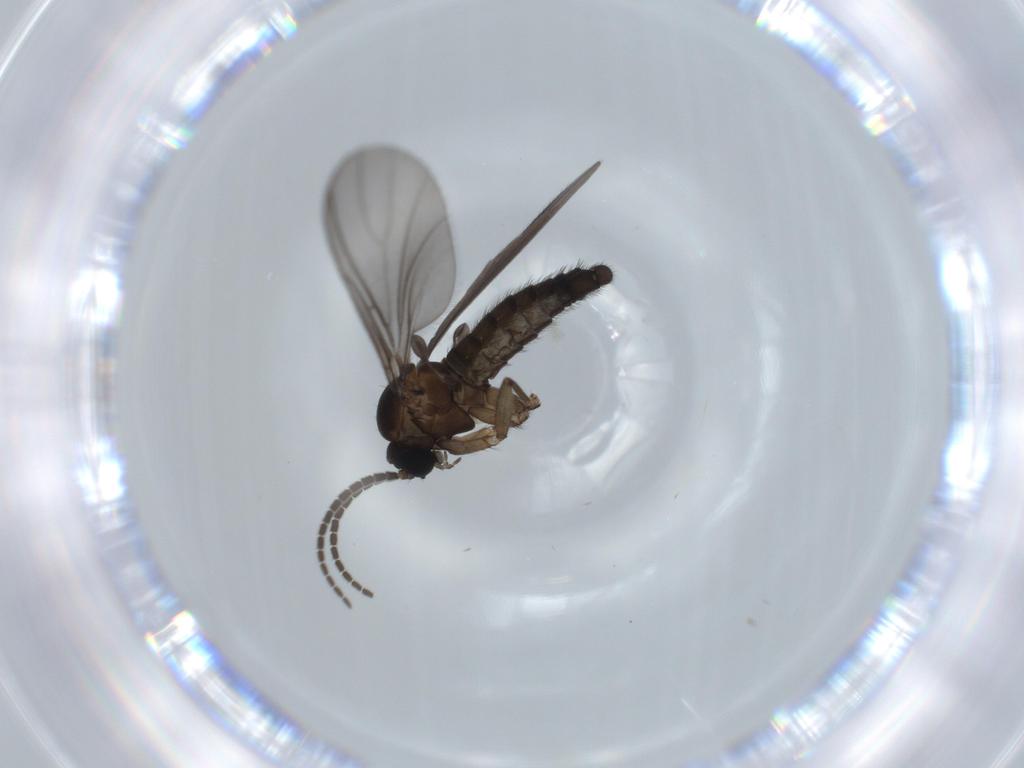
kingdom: Animalia
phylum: Arthropoda
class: Insecta
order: Diptera
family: Sciaridae
